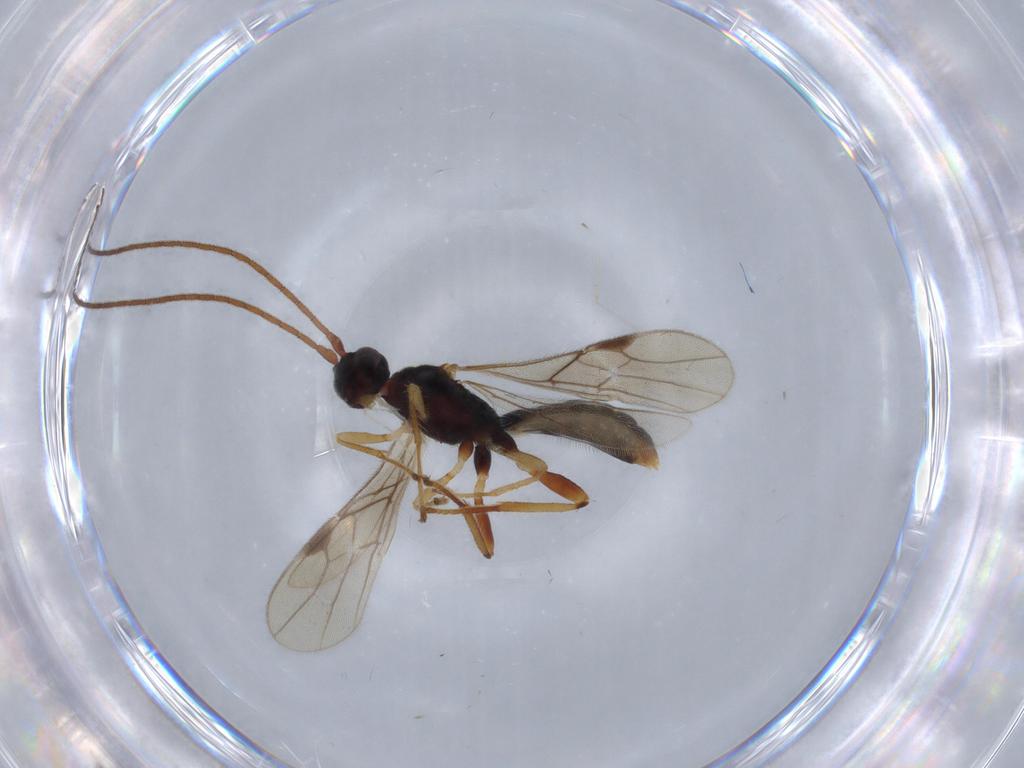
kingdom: Animalia
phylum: Arthropoda
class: Insecta
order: Hymenoptera
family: Braconidae
